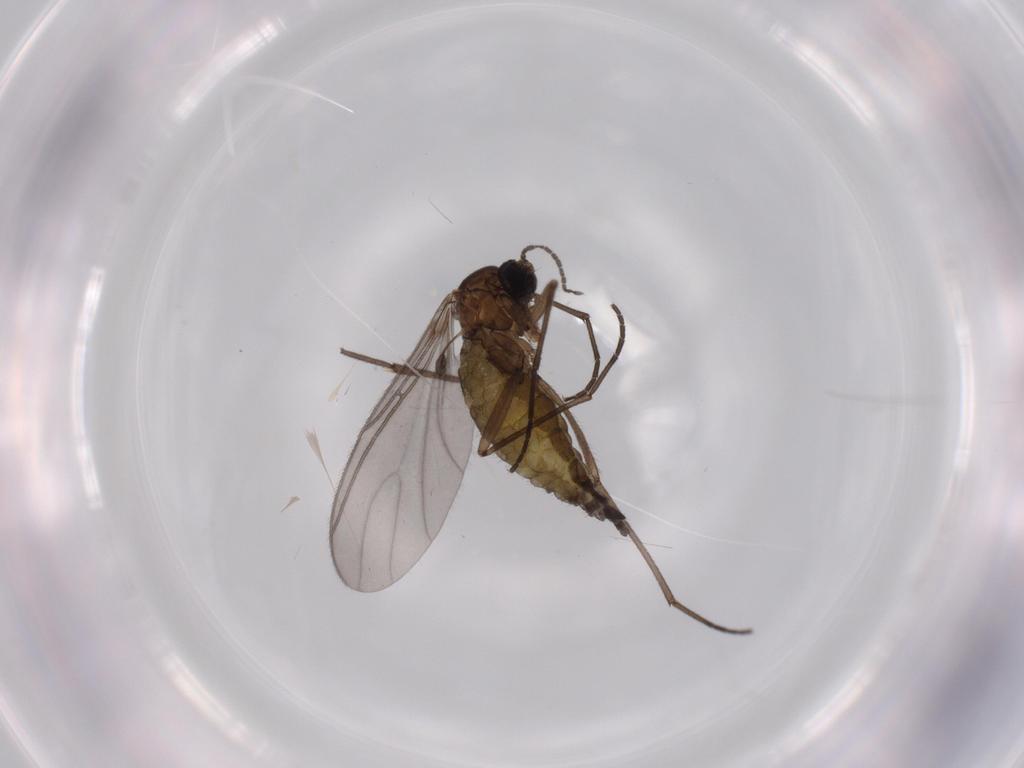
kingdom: Animalia
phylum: Arthropoda
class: Insecta
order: Diptera
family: Sciaridae
